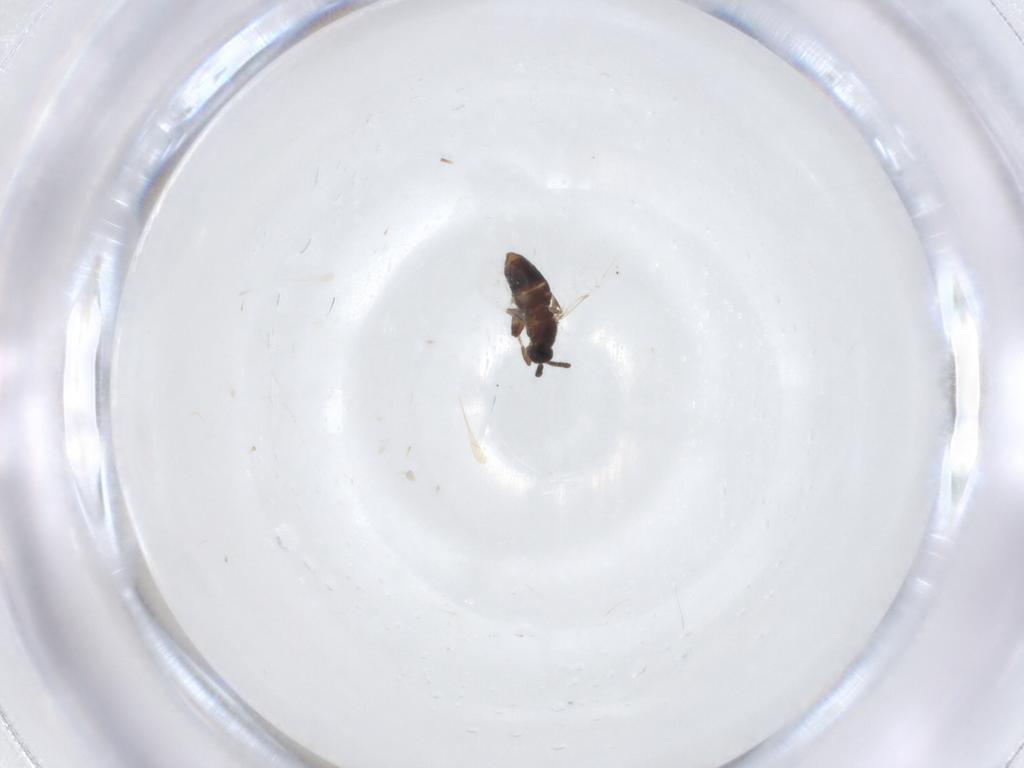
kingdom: Animalia
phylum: Arthropoda
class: Insecta
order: Diptera
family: Scatopsidae
